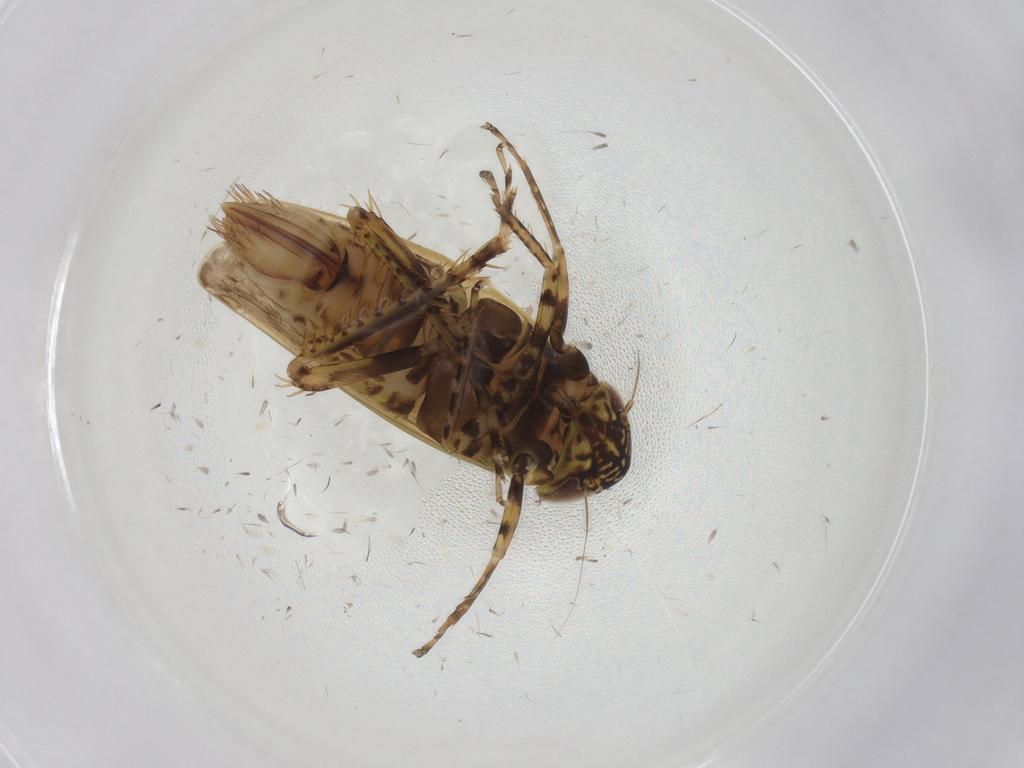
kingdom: Animalia
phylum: Arthropoda
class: Insecta
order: Hemiptera
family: Cicadellidae
